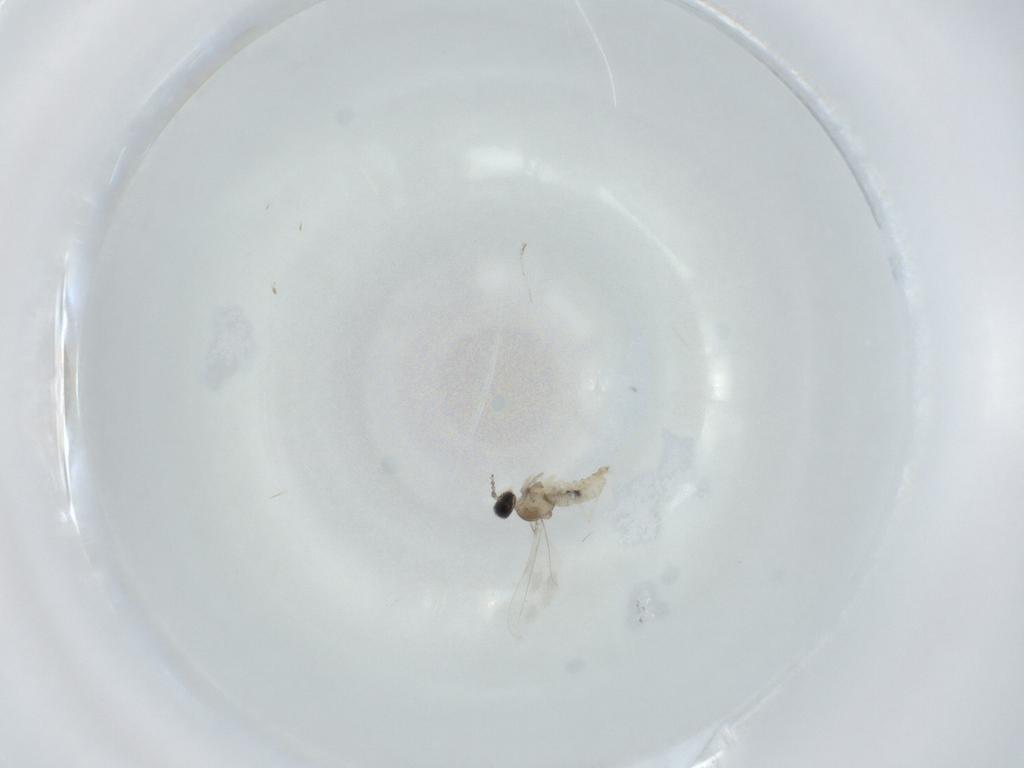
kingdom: Animalia
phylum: Arthropoda
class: Insecta
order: Diptera
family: Cecidomyiidae
